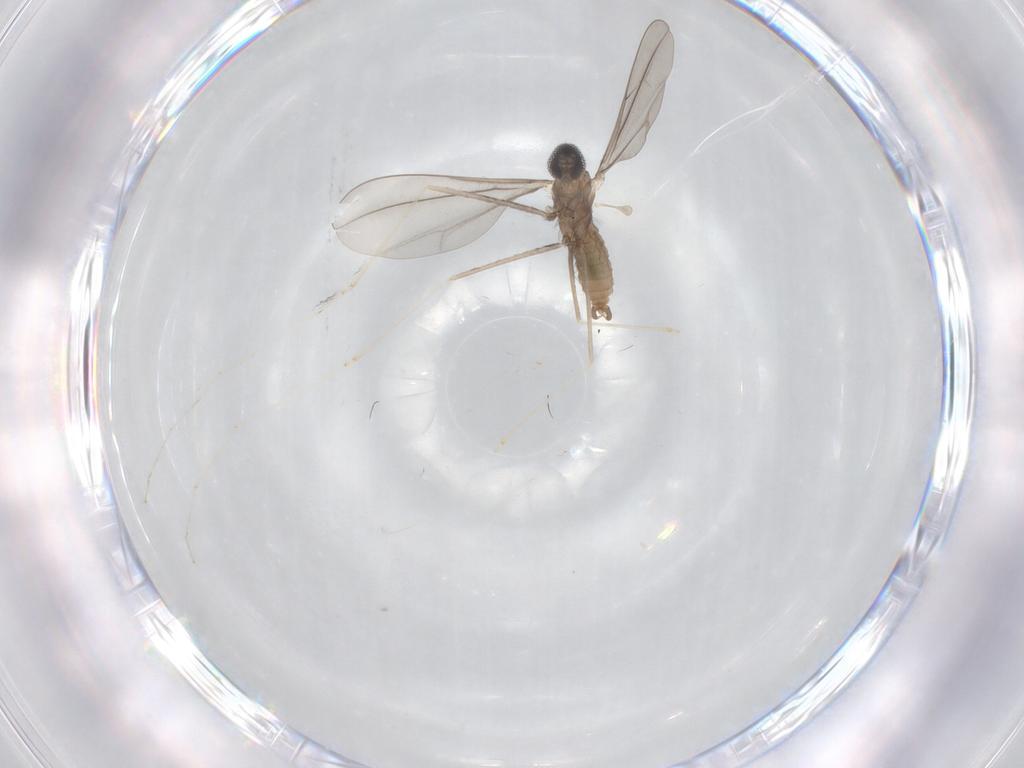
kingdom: Animalia
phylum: Arthropoda
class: Insecta
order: Diptera
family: Cecidomyiidae
